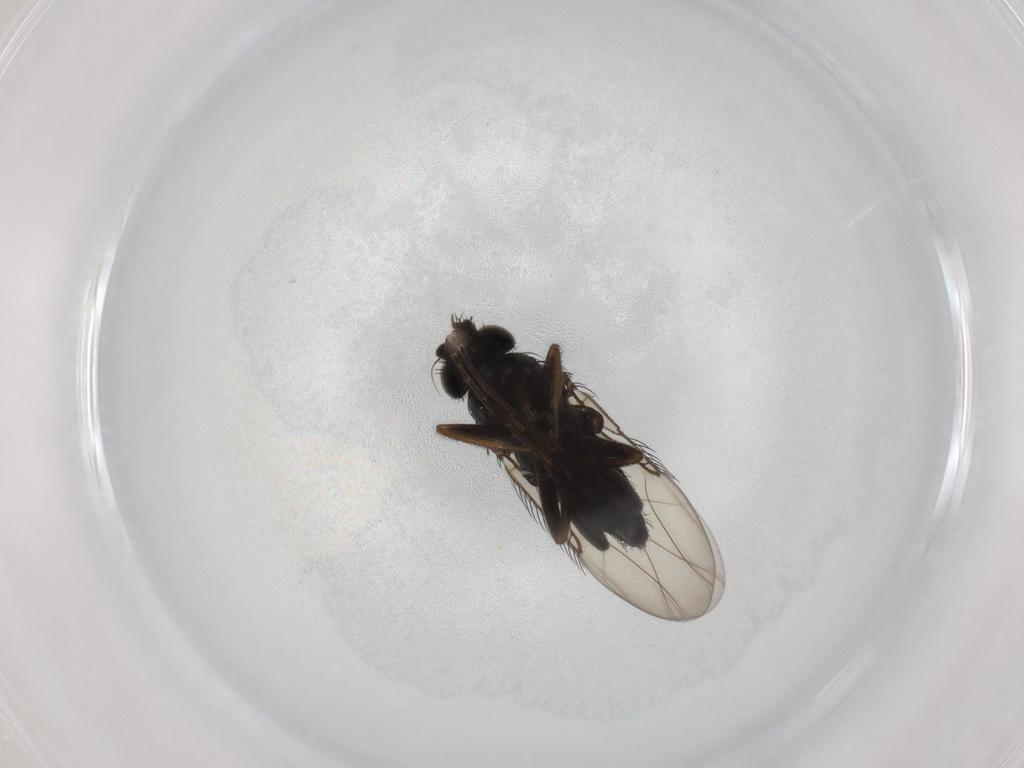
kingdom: Animalia
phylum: Arthropoda
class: Insecta
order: Diptera
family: Phoridae
